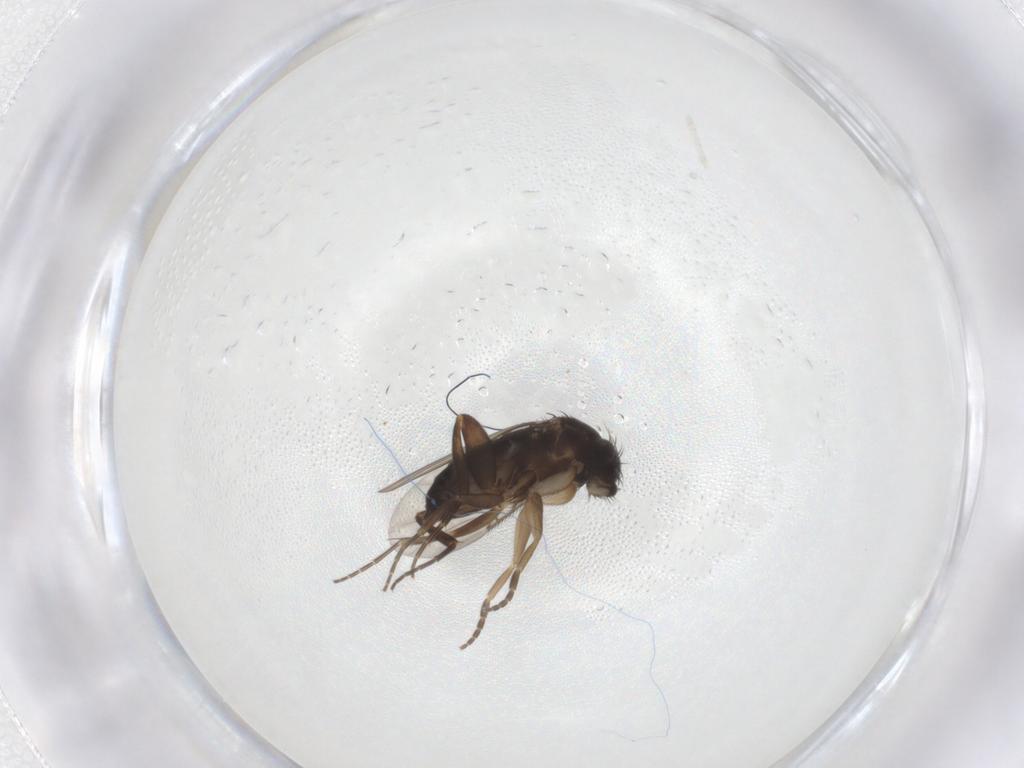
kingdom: Animalia
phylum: Arthropoda
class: Insecta
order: Diptera
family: Phoridae
